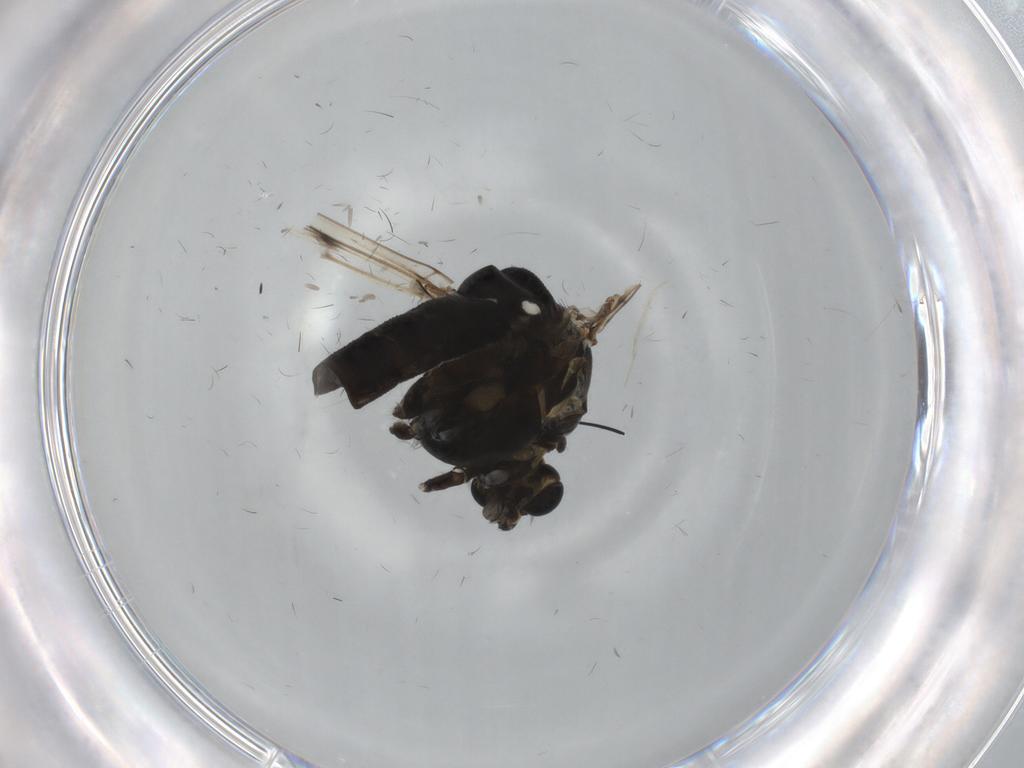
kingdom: Animalia
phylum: Arthropoda
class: Insecta
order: Diptera
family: Chironomidae
